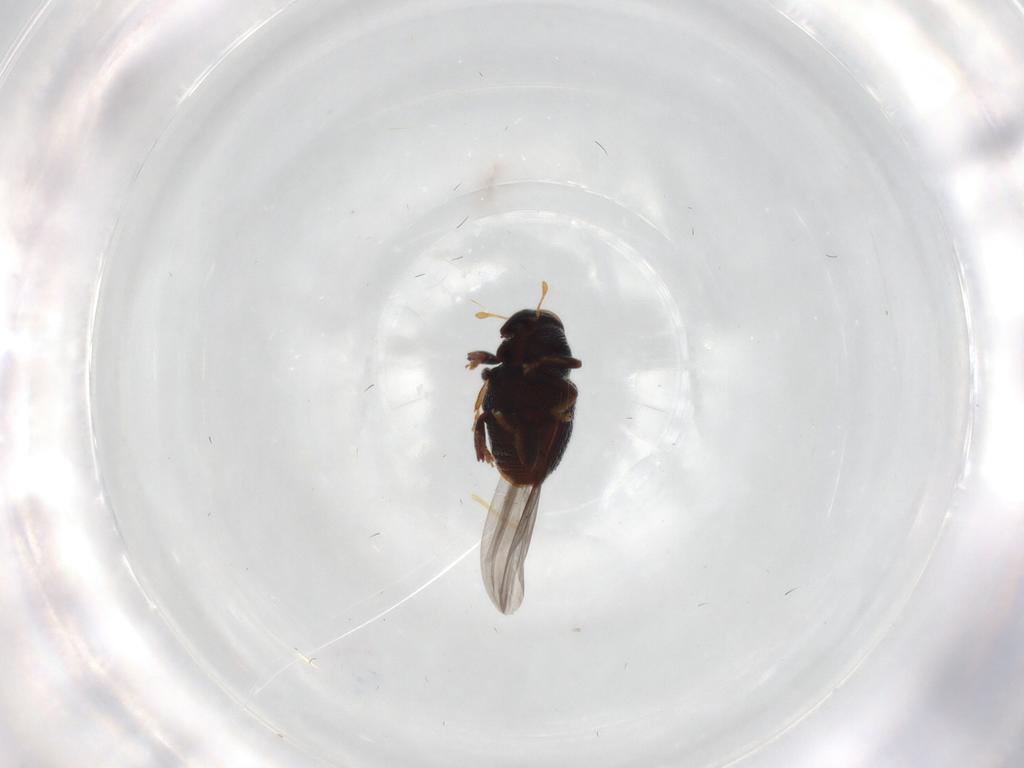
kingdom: Animalia
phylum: Arthropoda
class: Insecta
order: Coleoptera
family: Curculionidae
